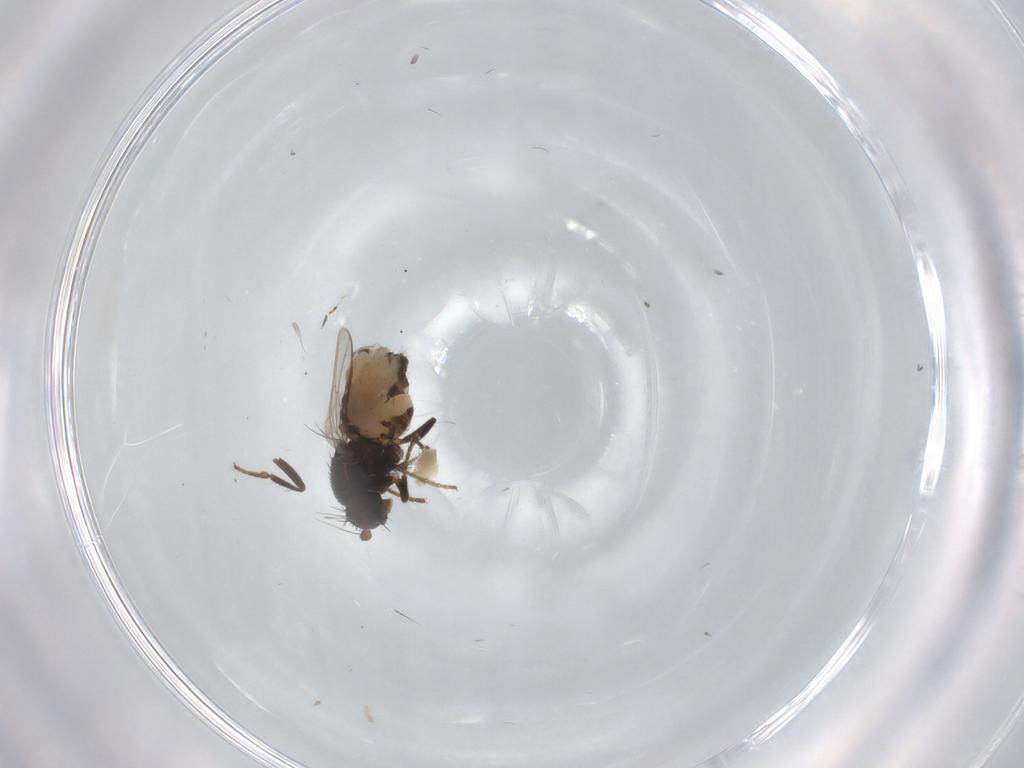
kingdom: Animalia
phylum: Arthropoda
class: Insecta
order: Diptera
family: Sphaeroceridae
